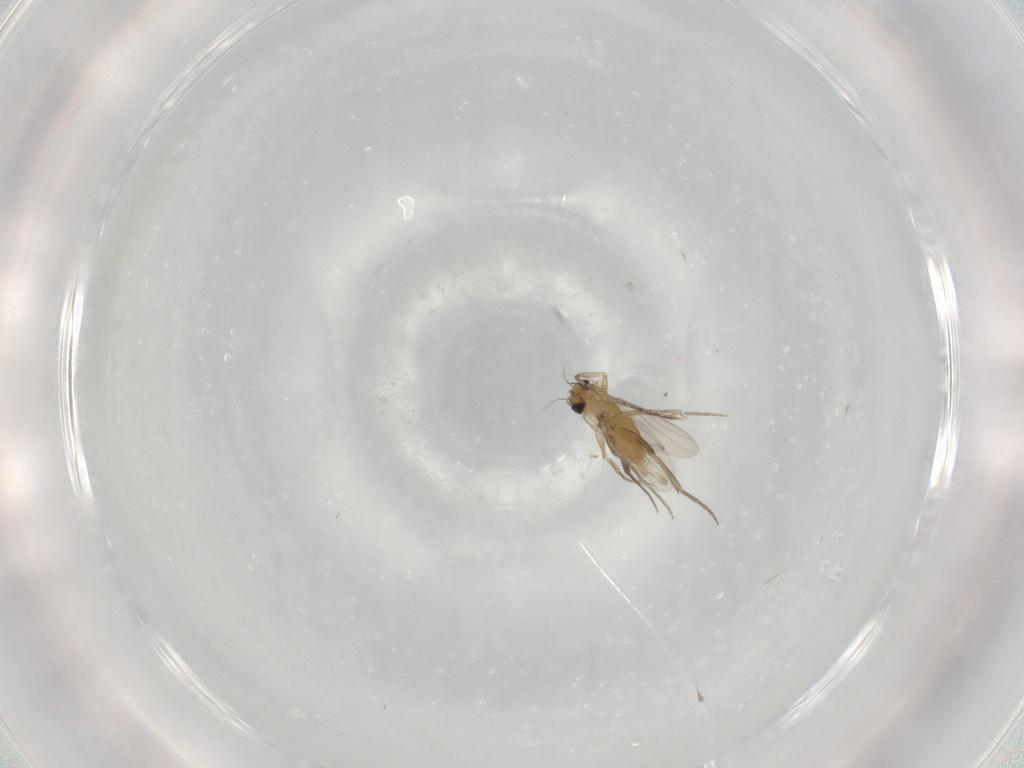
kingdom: Animalia
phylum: Arthropoda
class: Insecta
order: Diptera
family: Phoridae
